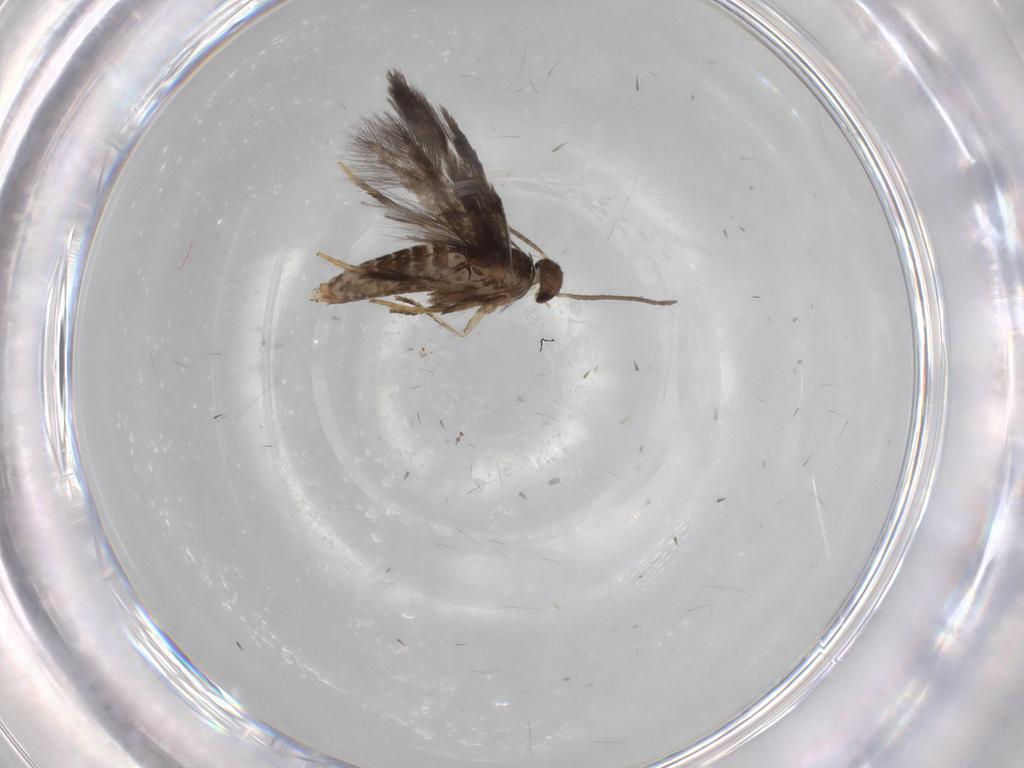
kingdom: Animalia
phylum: Arthropoda
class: Insecta
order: Lepidoptera
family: Heliozelidae
